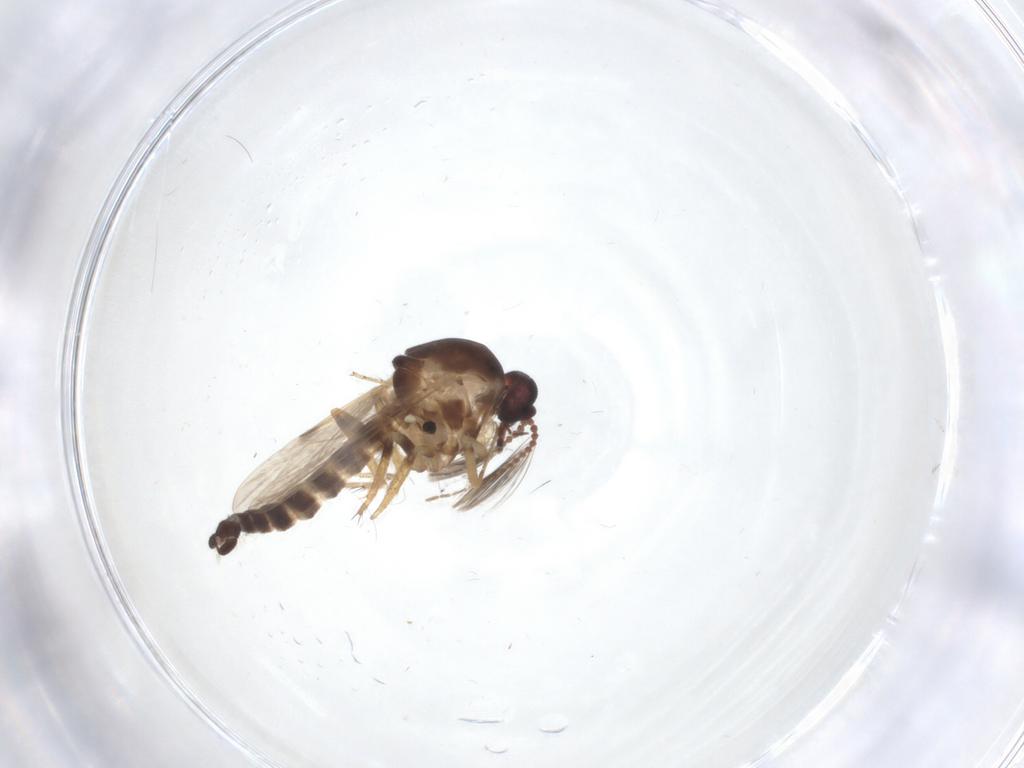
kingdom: Animalia
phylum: Arthropoda
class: Insecta
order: Diptera
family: Ceratopogonidae
